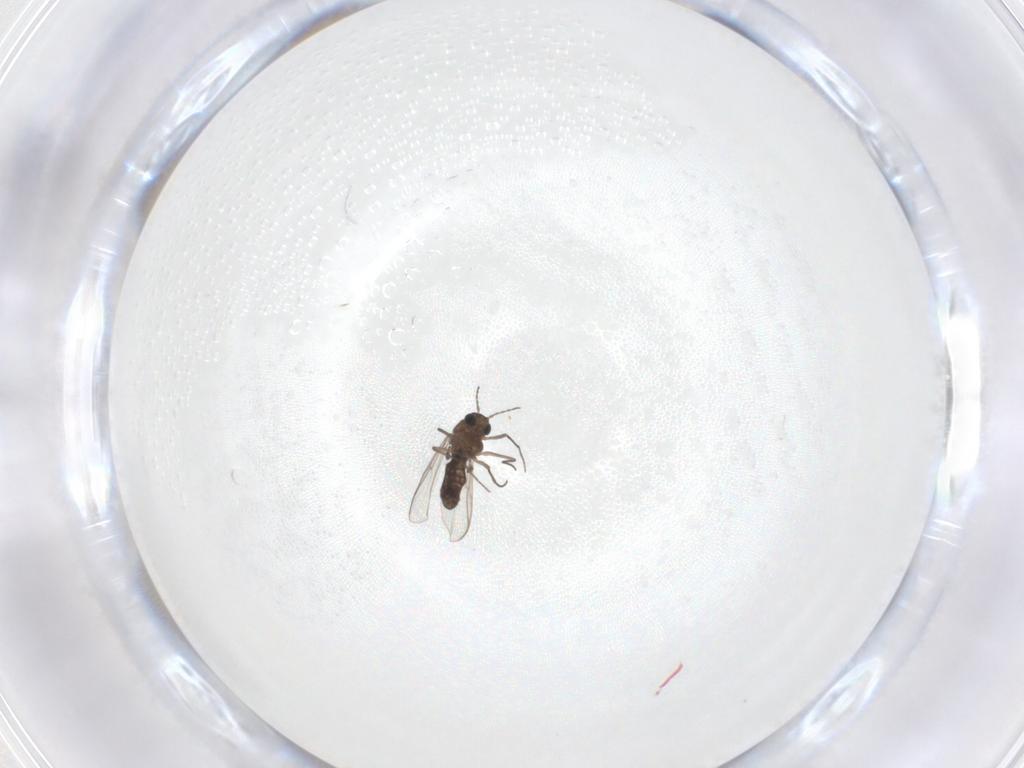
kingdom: Animalia
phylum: Arthropoda
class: Insecta
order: Diptera
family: Chironomidae
